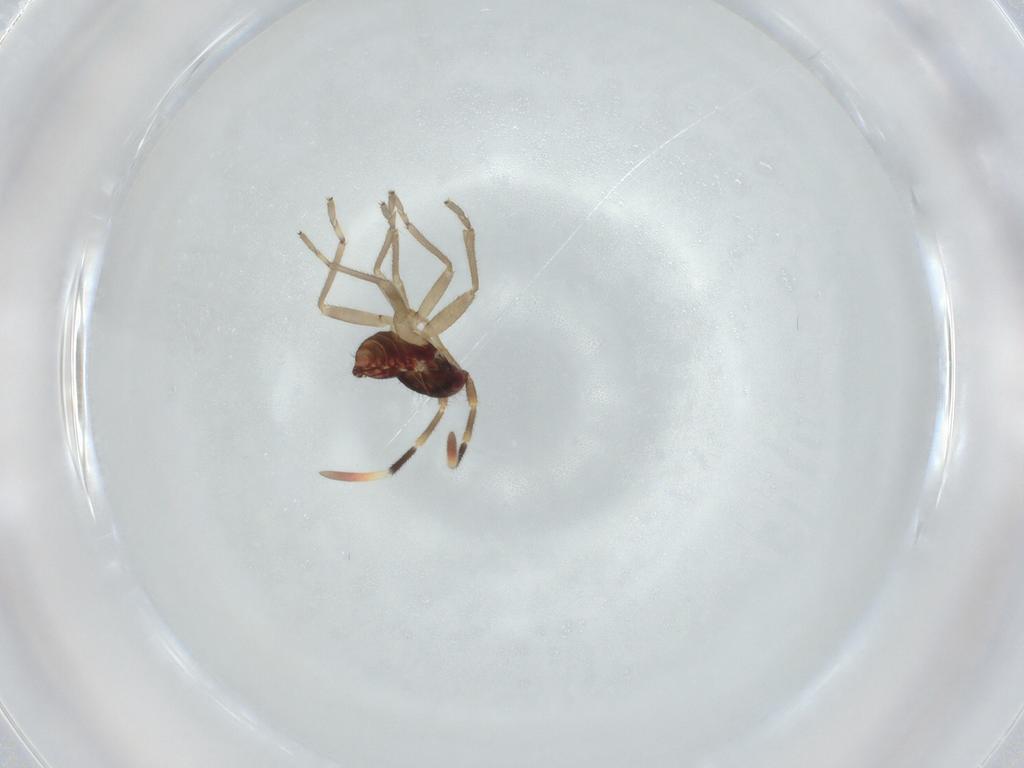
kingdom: Animalia
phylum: Arthropoda
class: Insecta
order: Hemiptera
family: Rhyparochromidae
